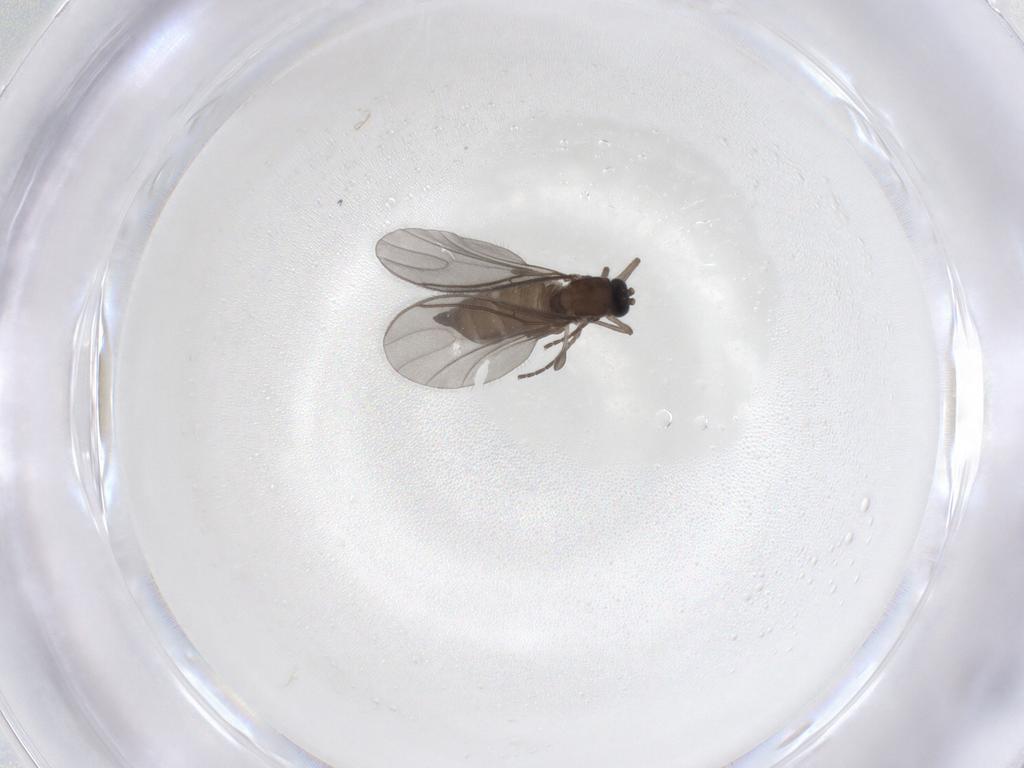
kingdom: Animalia
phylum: Arthropoda
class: Insecta
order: Diptera
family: Sciaridae
